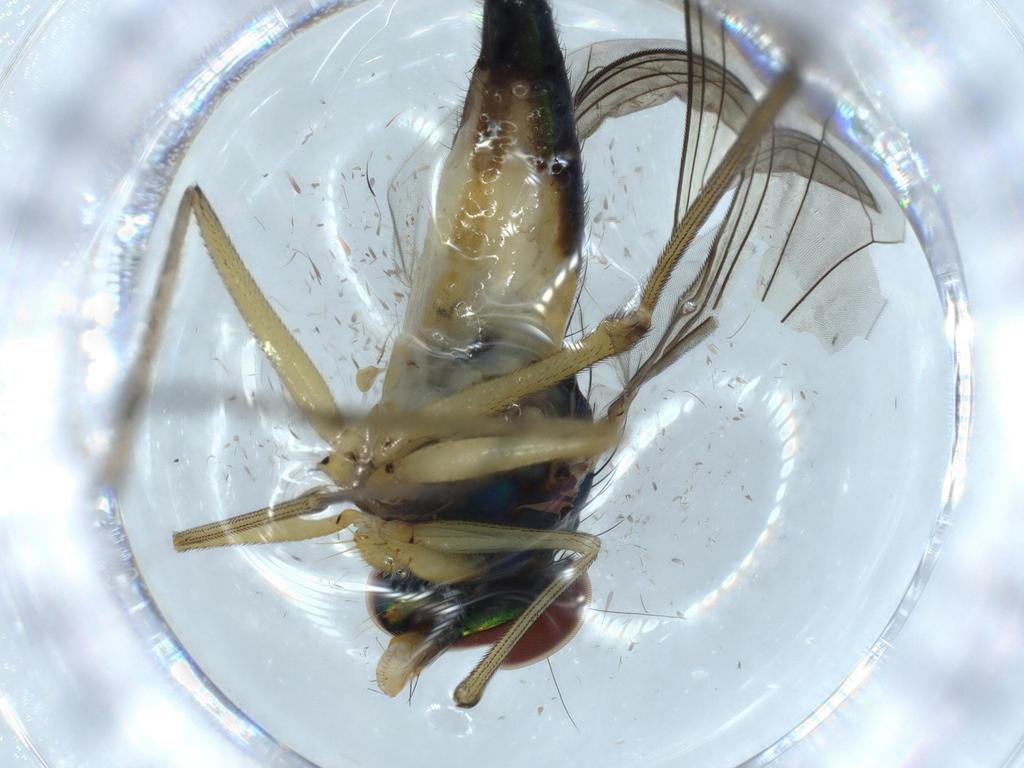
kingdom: Animalia
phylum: Arthropoda
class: Insecta
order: Diptera
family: Dolichopodidae
